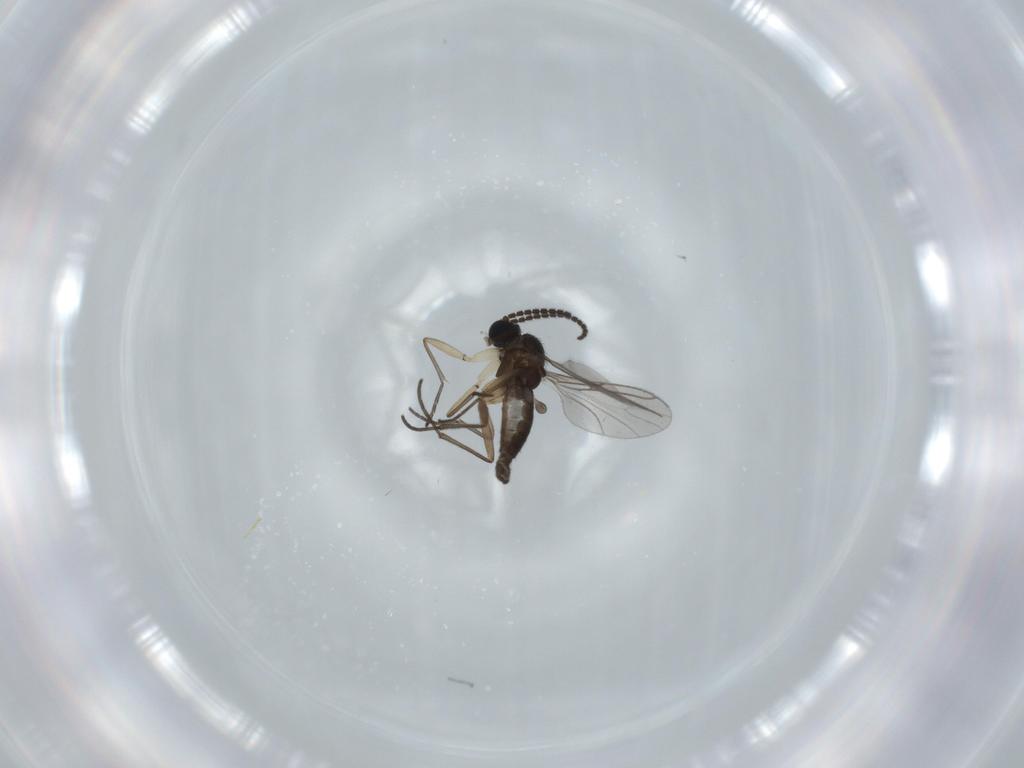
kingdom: Animalia
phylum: Arthropoda
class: Insecta
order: Diptera
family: Sciaridae
